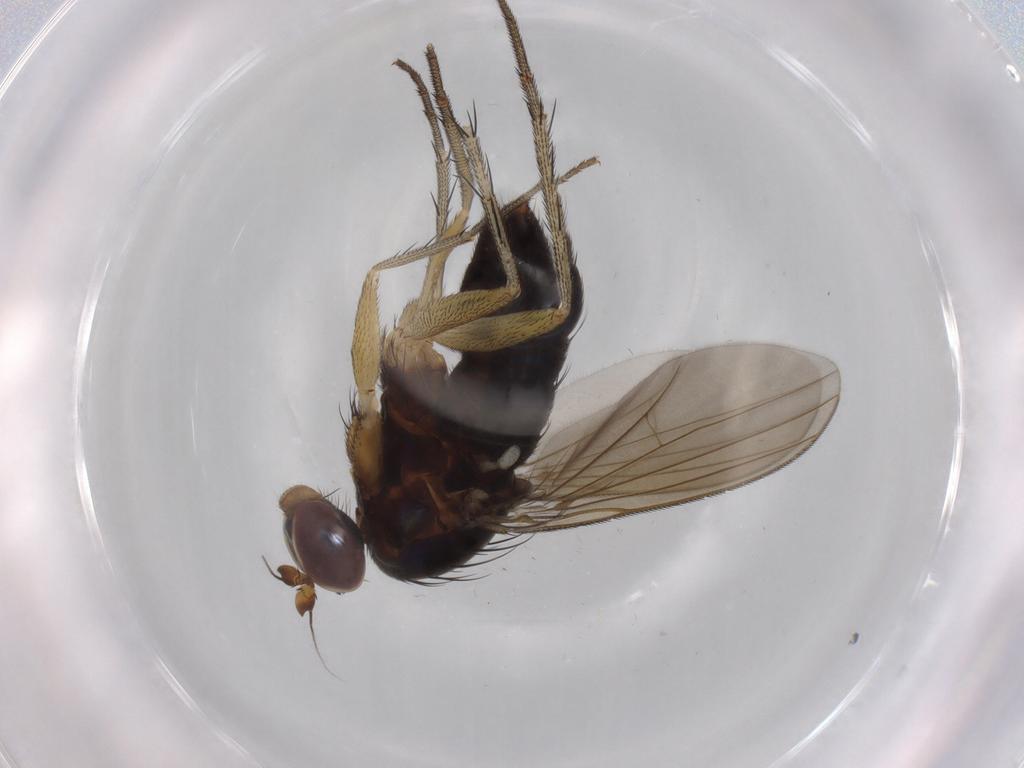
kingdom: Animalia
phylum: Arthropoda
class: Insecta
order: Diptera
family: Dolichopodidae
